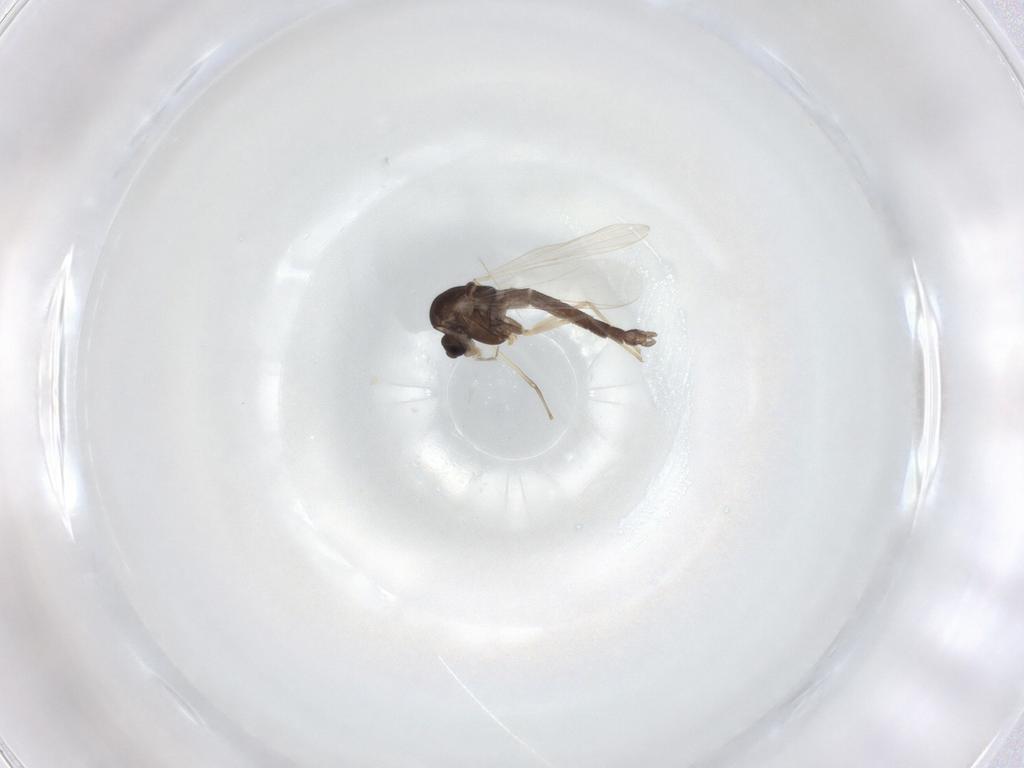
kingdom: Animalia
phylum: Arthropoda
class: Insecta
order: Diptera
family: Chironomidae
